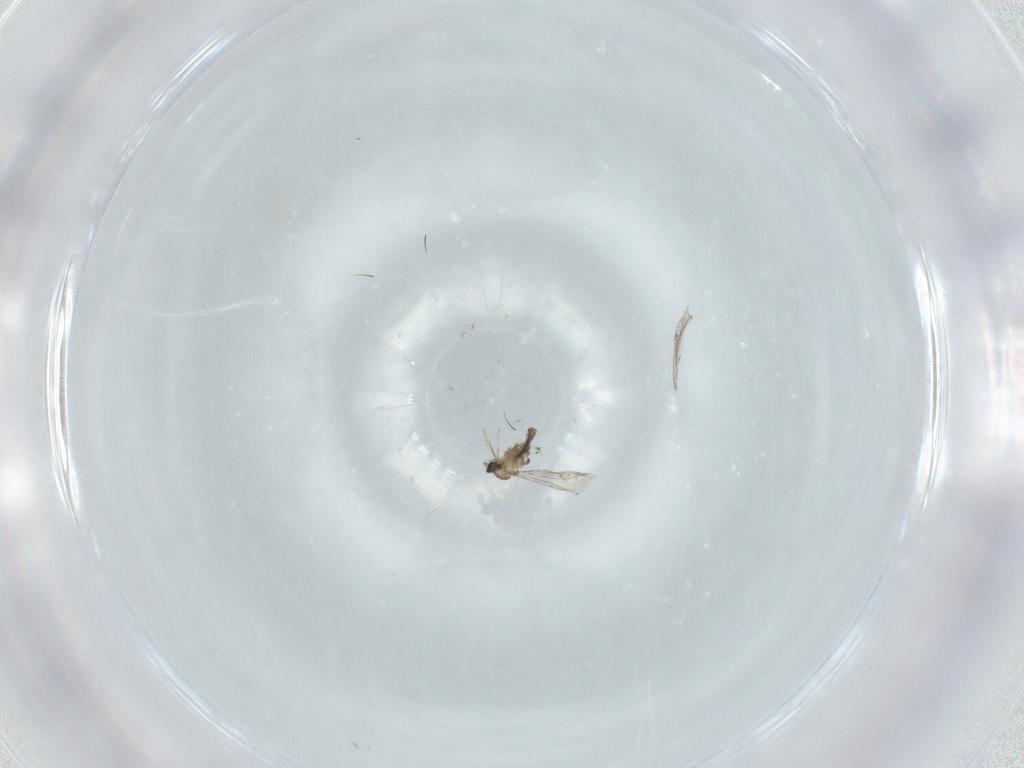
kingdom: Animalia
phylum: Arthropoda
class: Insecta
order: Diptera
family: Cecidomyiidae
